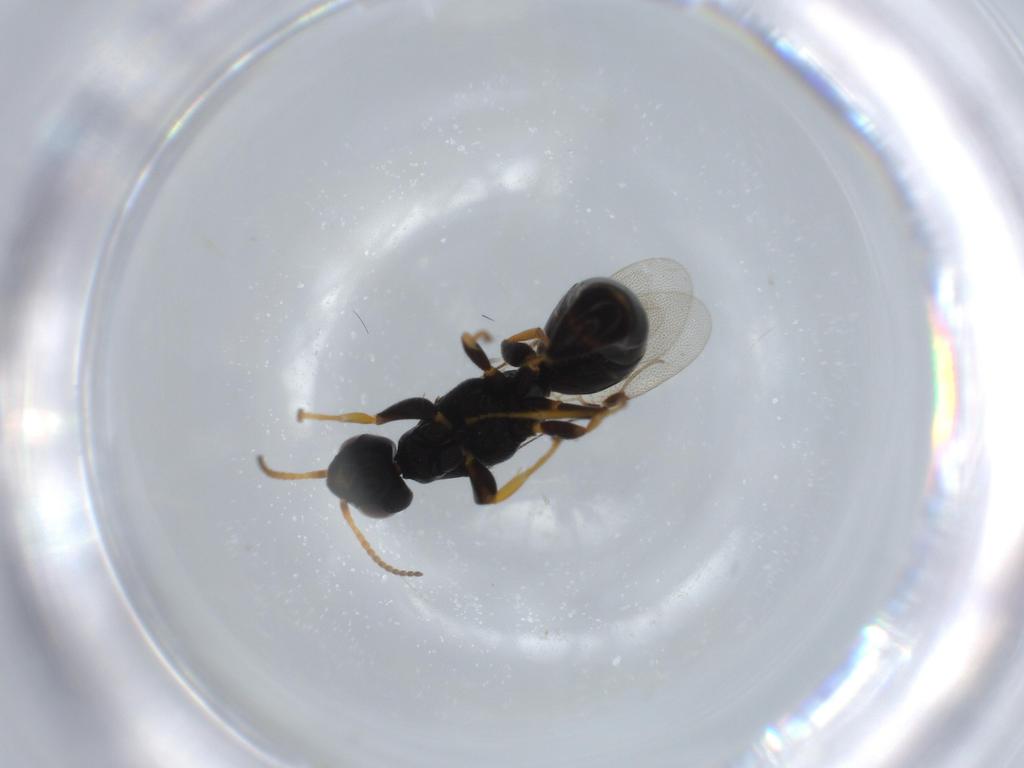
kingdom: Animalia
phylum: Arthropoda
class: Insecta
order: Hymenoptera
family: Bethylidae
